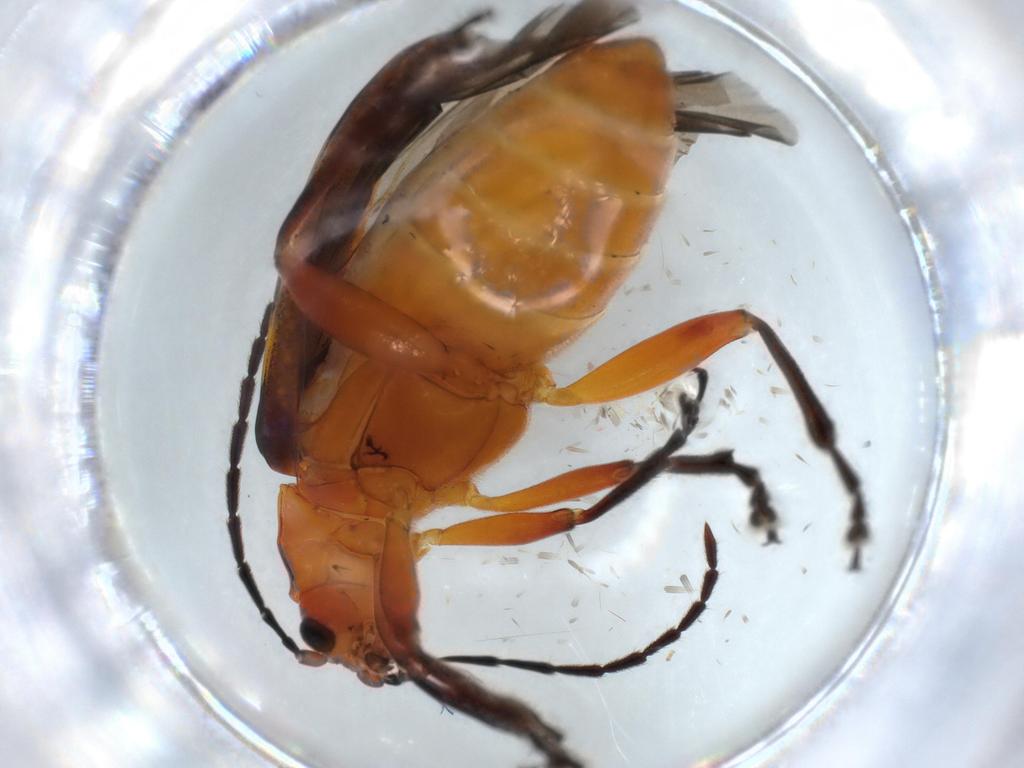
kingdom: Animalia
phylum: Arthropoda
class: Insecta
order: Coleoptera
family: Chrysomelidae
